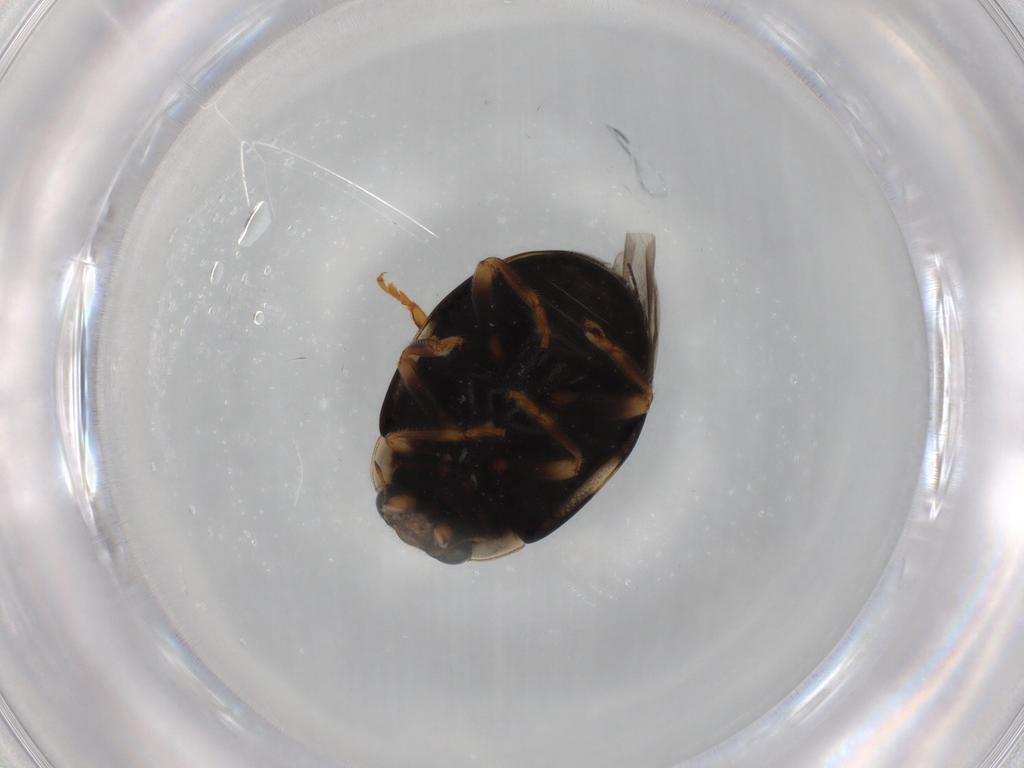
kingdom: Animalia
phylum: Arthropoda
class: Insecta
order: Coleoptera
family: Coccinellidae
